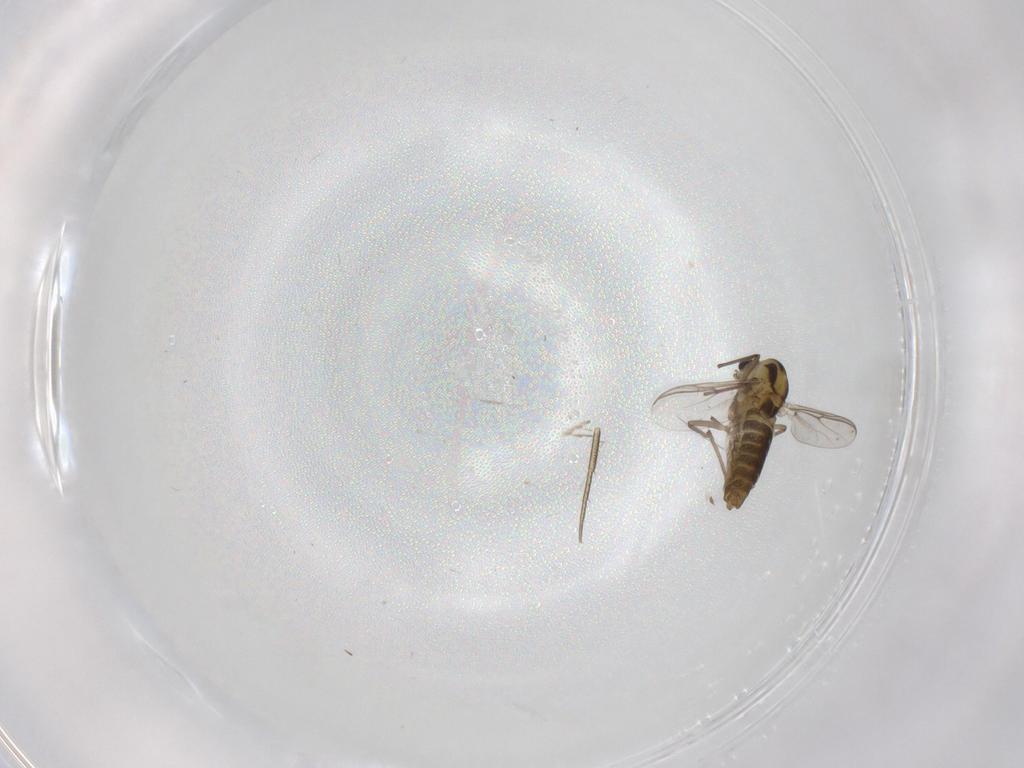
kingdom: Animalia
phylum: Arthropoda
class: Insecta
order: Diptera
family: Chironomidae
